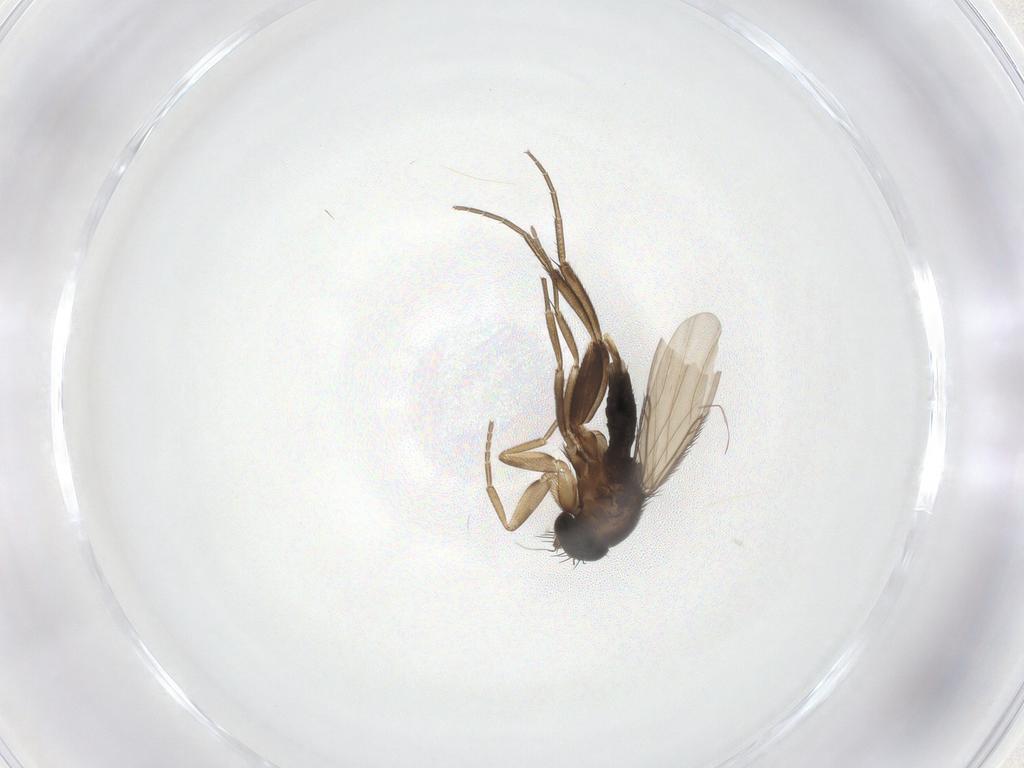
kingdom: Animalia
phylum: Arthropoda
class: Insecta
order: Diptera
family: Phoridae
